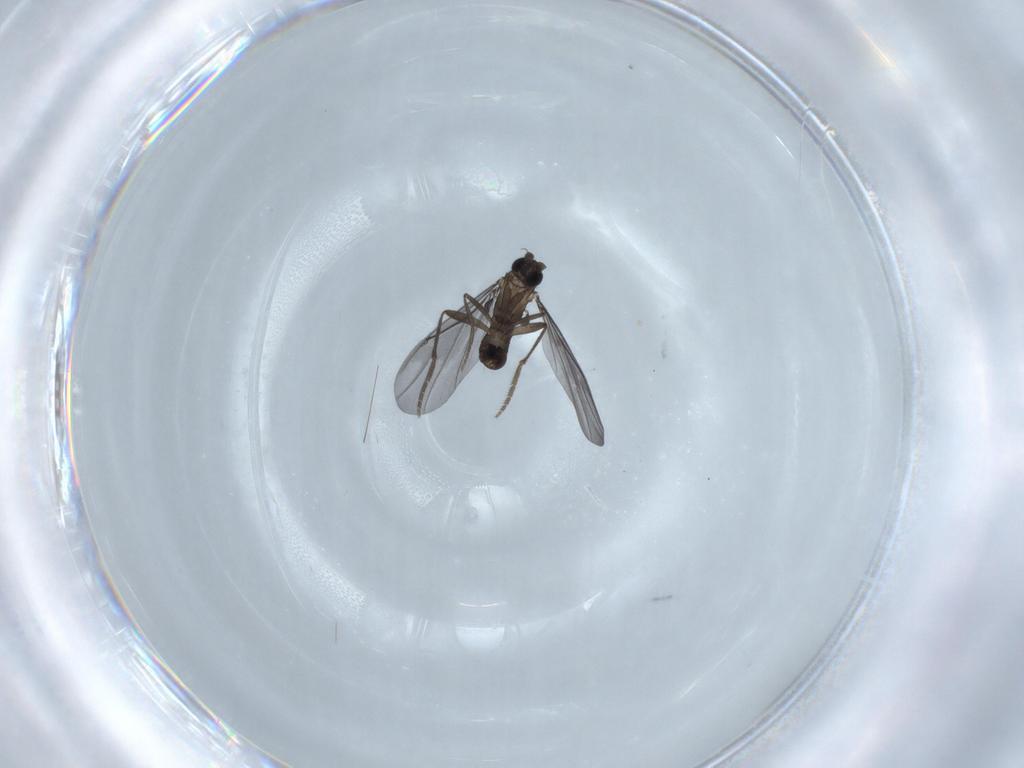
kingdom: Animalia
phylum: Arthropoda
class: Insecta
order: Diptera
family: Phoridae
